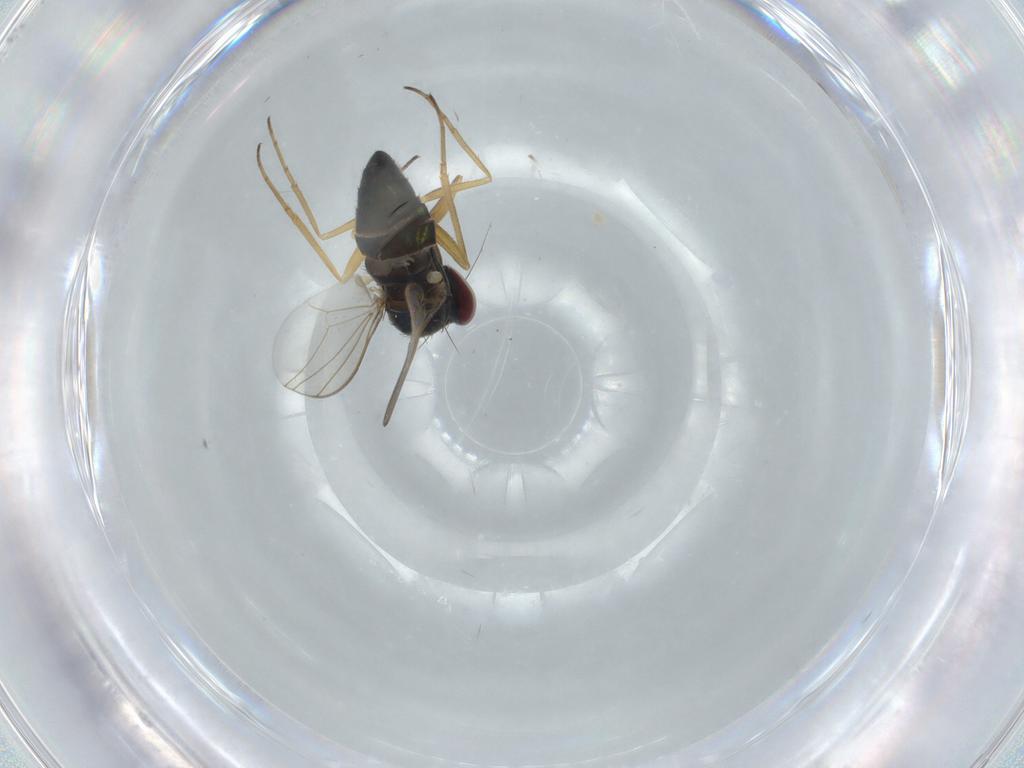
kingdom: Animalia
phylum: Arthropoda
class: Insecta
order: Diptera
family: Dolichopodidae
